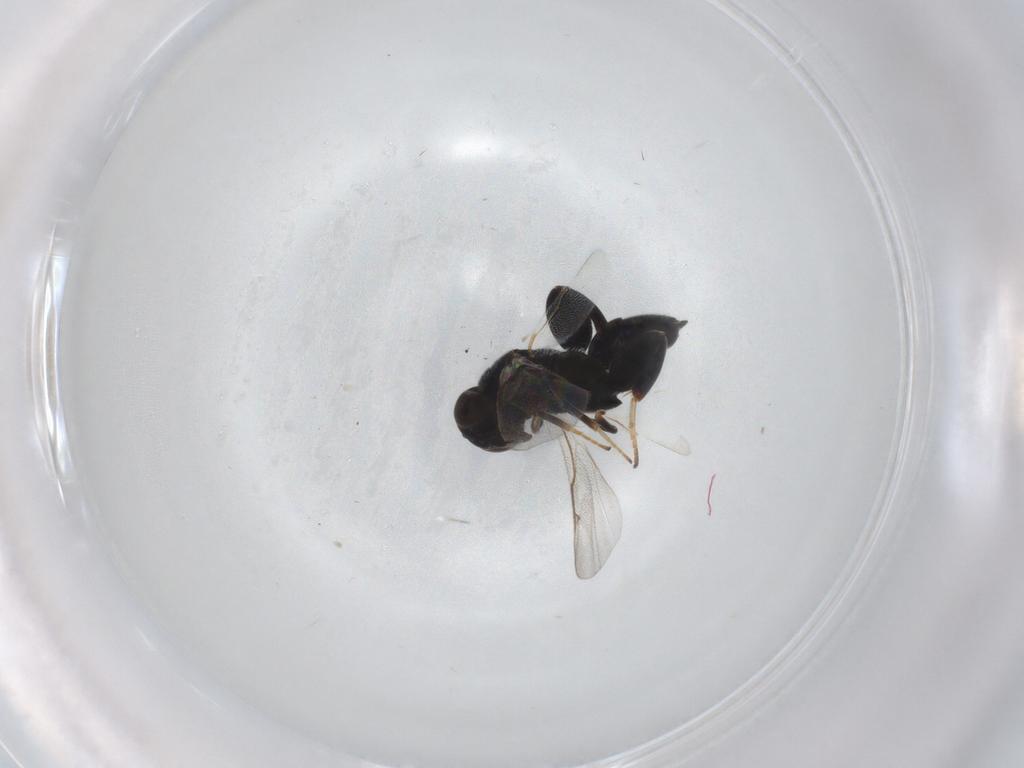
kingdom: Animalia
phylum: Arthropoda
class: Insecta
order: Hymenoptera
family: Torymidae
